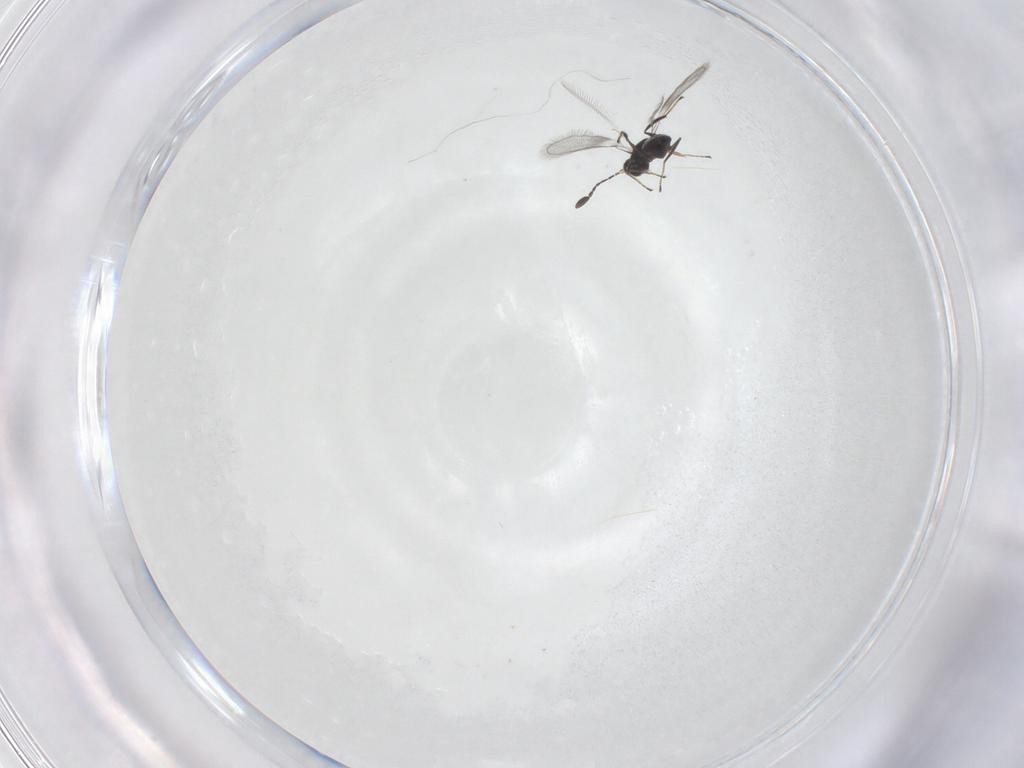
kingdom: Animalia
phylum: Arthropoda
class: Insecta
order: Hymenoptera
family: Mymaridae
